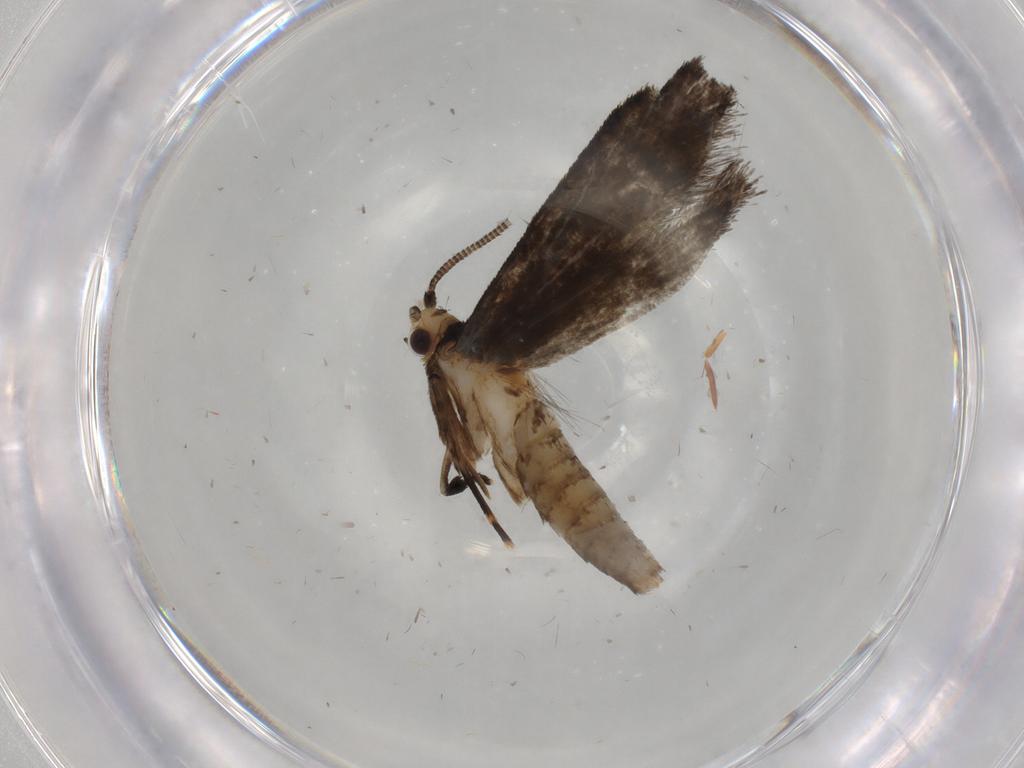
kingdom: Animalia
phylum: Arthropoda
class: Insecta
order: Lepidoptera
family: Tineidae
